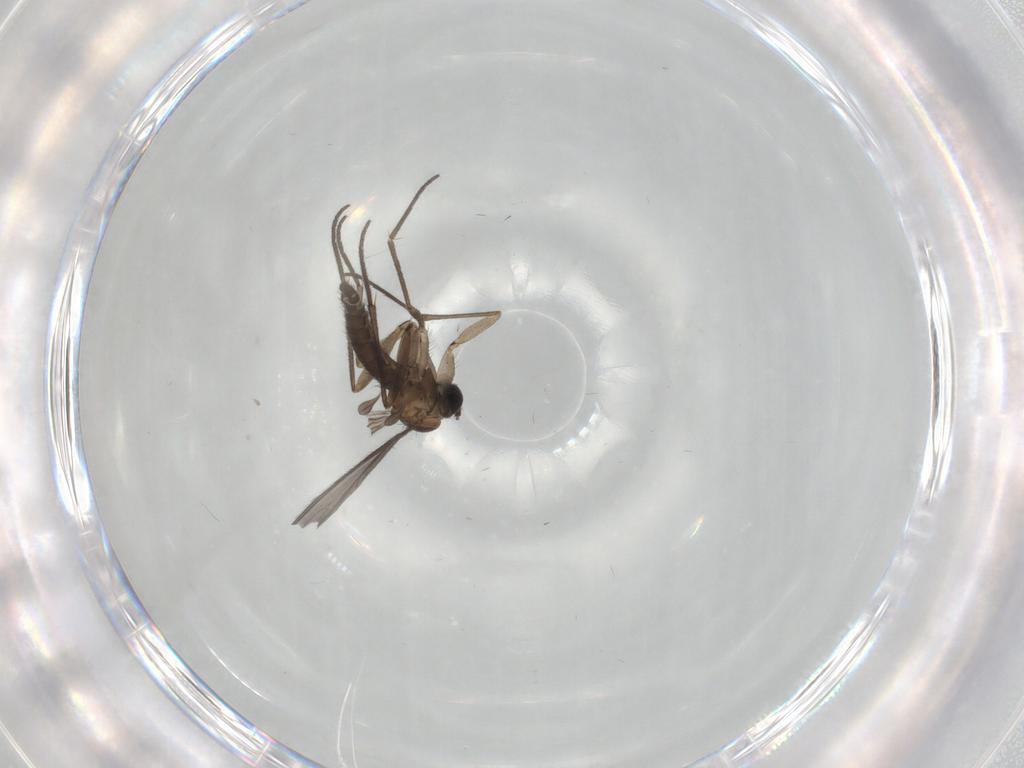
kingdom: Animalia
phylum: Arthropoda
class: Insecta
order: Diptera
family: Sciaridae
